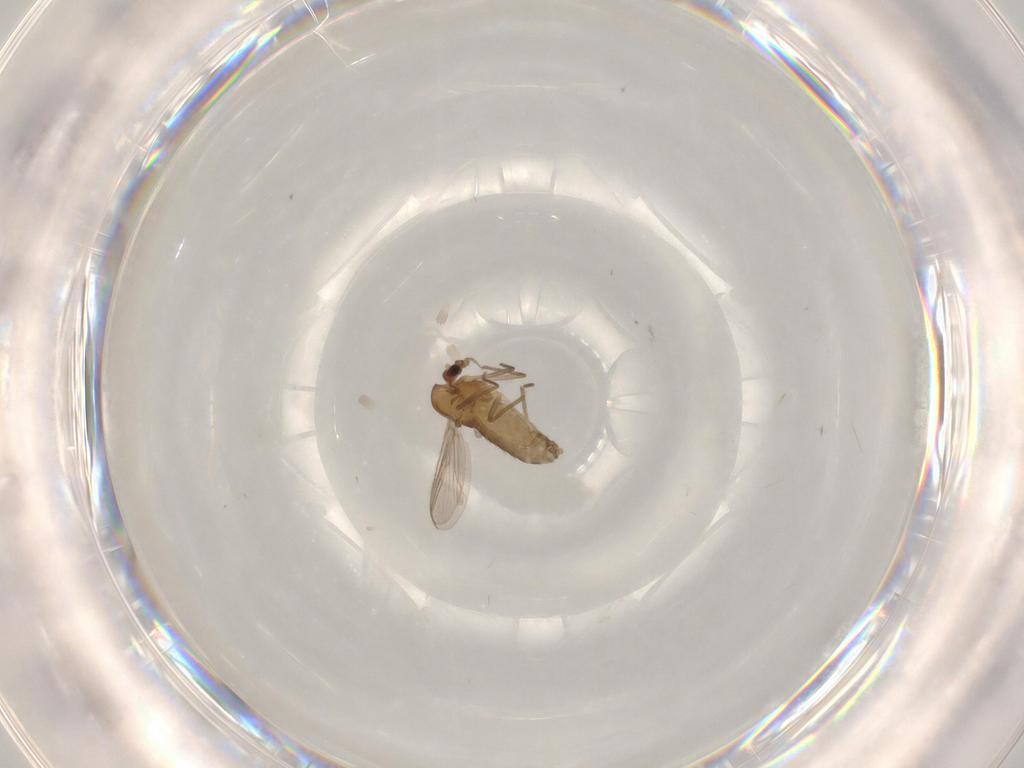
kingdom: Animalia
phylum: Arthropoda
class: Insecta
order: Diptera
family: Chironomidae
